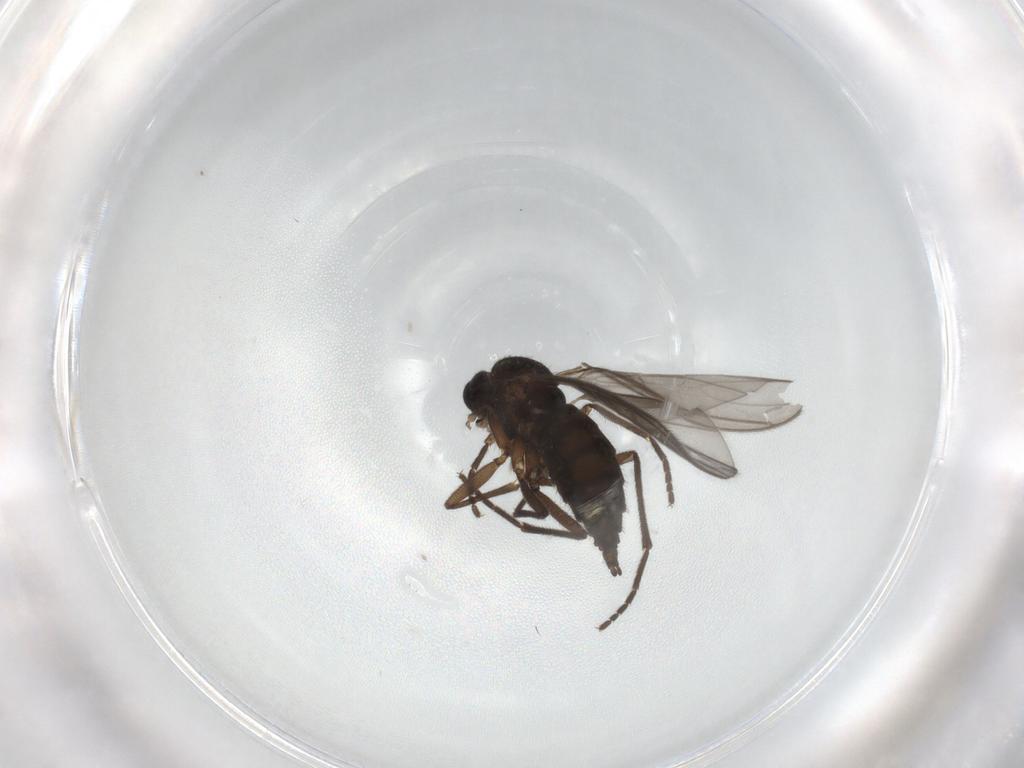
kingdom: Animalia
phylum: Arthropoda
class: Insecta
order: Diptera
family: Sciaridae
